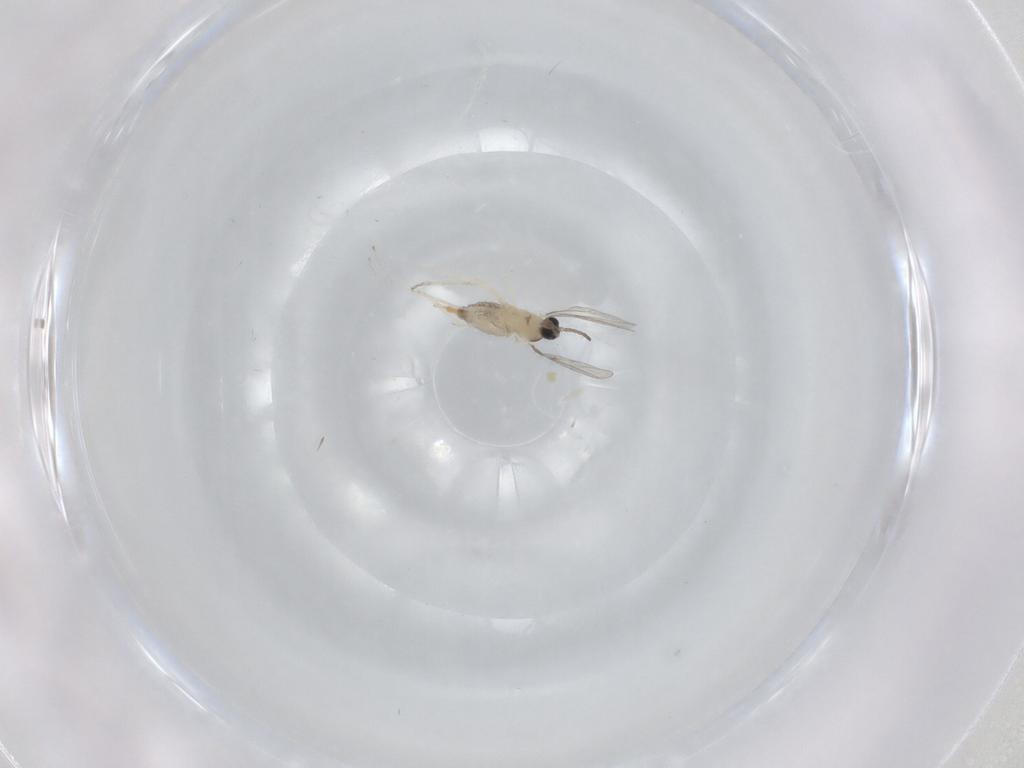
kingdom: Animalia
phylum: Arthropoda
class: Insecta
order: Diptera
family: Cecidomyiidae
